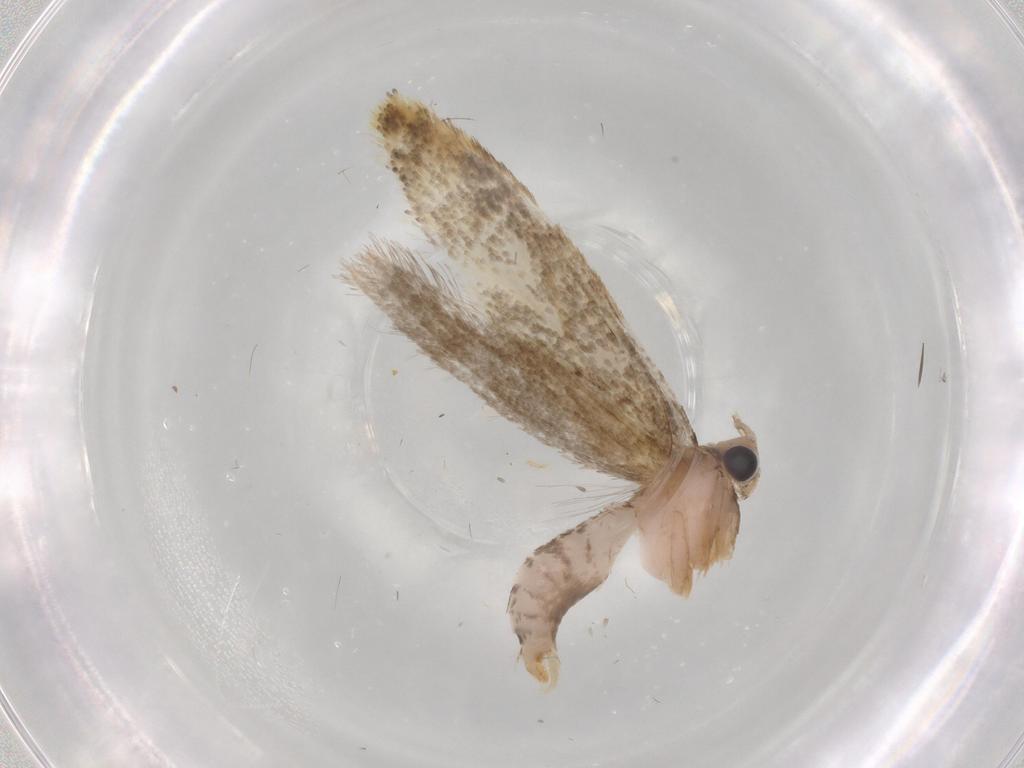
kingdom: Animalia
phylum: Arthropoda
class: Insecta
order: Lepidoptera
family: Tineidae
